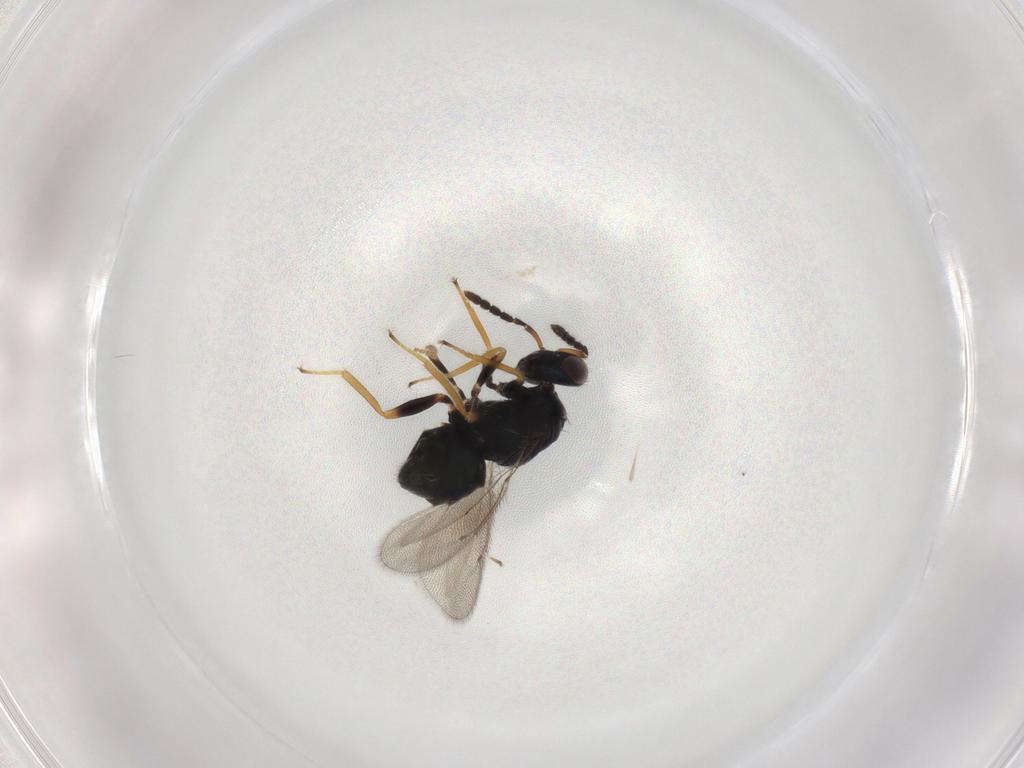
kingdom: Animalia
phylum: Arthropoda
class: Insecta
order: Hymenoptera
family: Eulophidae
